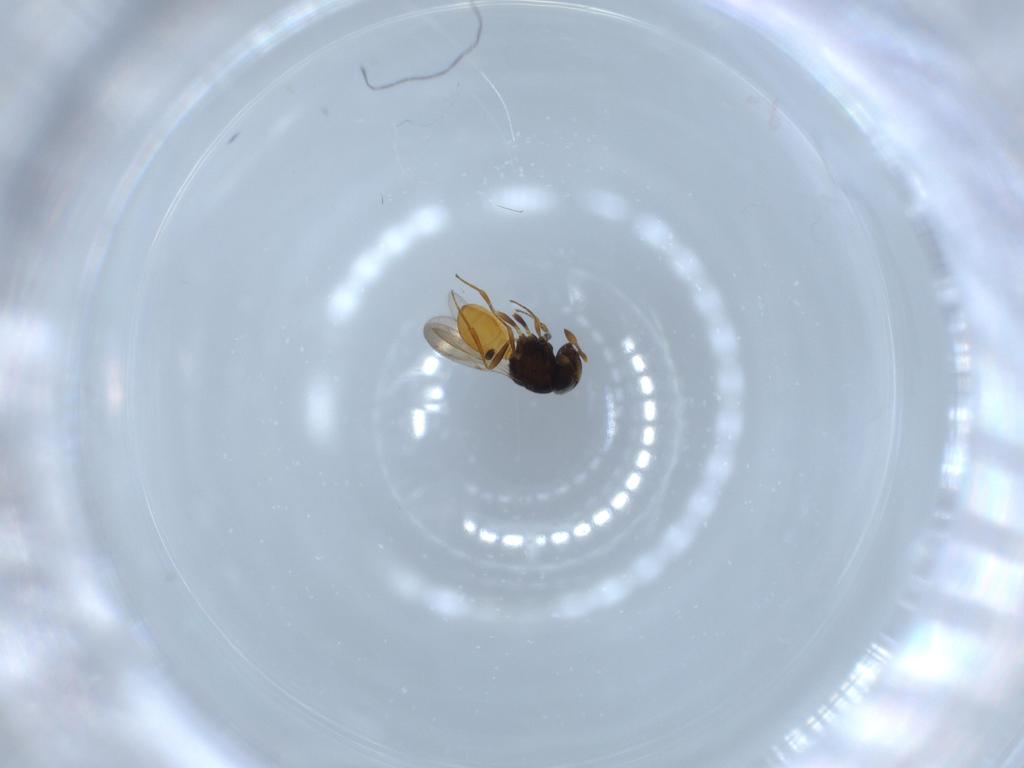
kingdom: Animalia
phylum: Arthropoda
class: Insecta
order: Hymenoptera
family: Scelionidae
